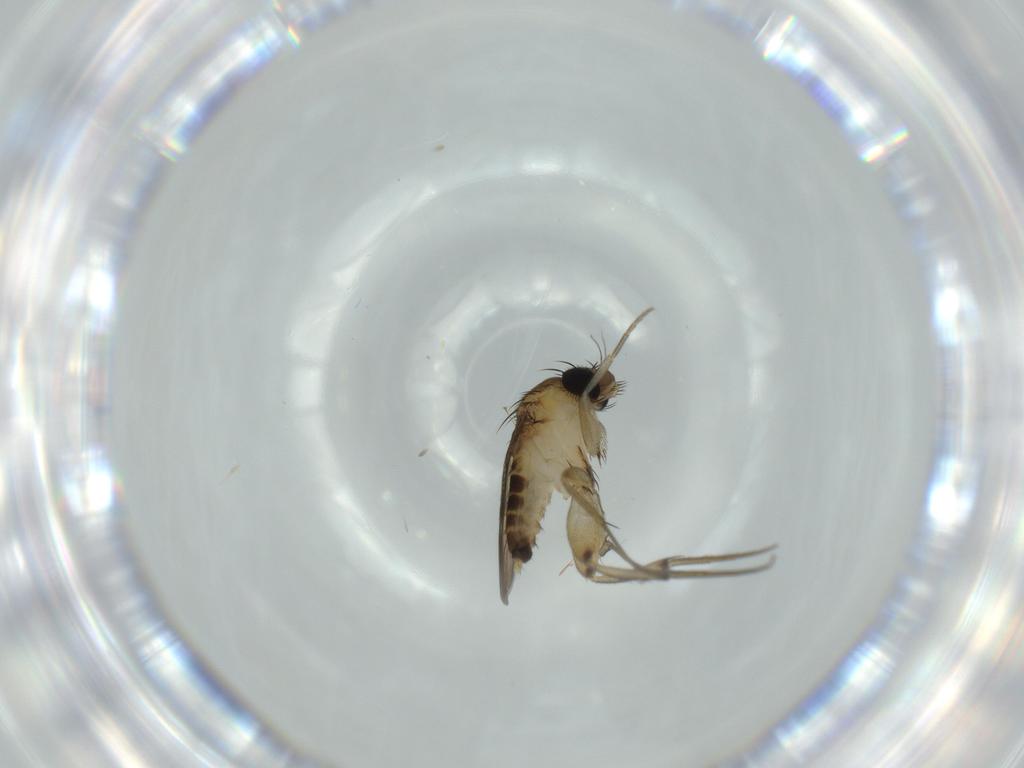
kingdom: Animalia
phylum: Arthropoda
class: Insecta
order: Diptera
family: Phoridae
